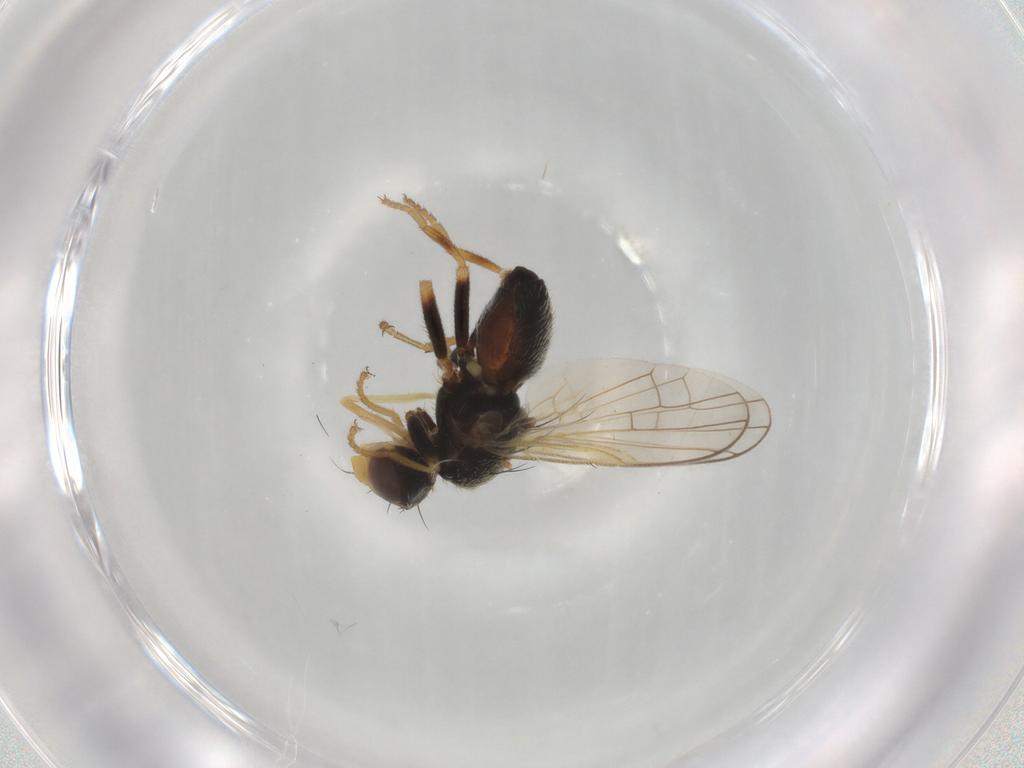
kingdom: Animalia
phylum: Arthropoda
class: Insecta
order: Diptera
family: Tephritidae
